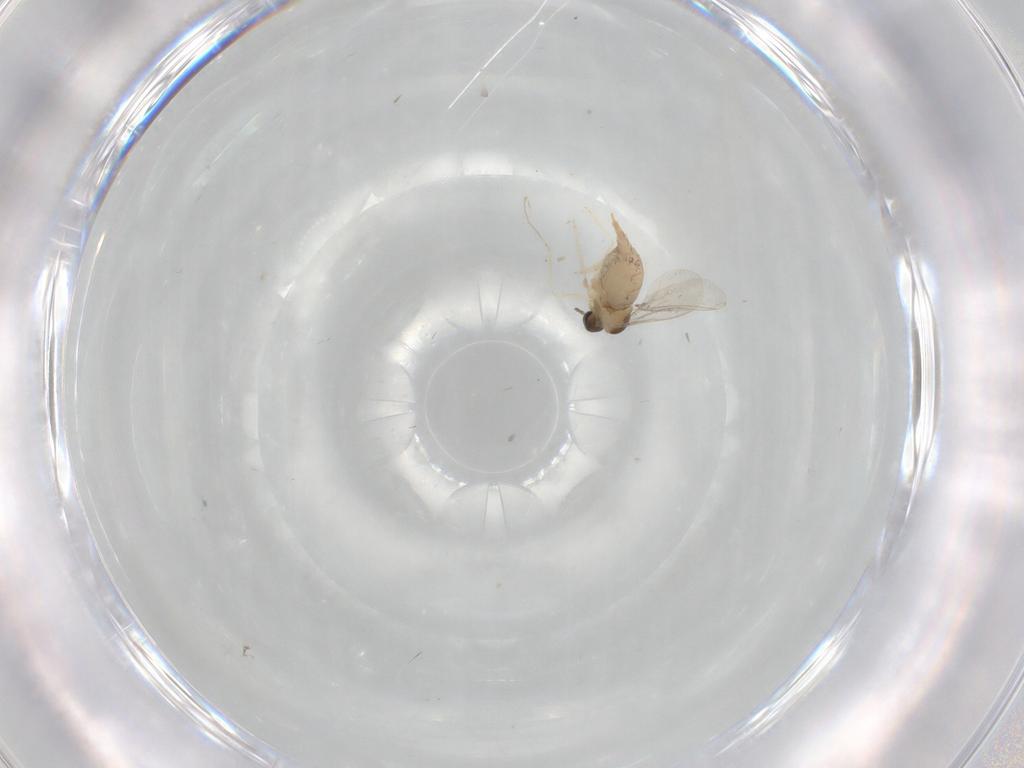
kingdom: Animalia
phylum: Arthropoda
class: Insecta
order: Diptera
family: Cecidomyiidae
